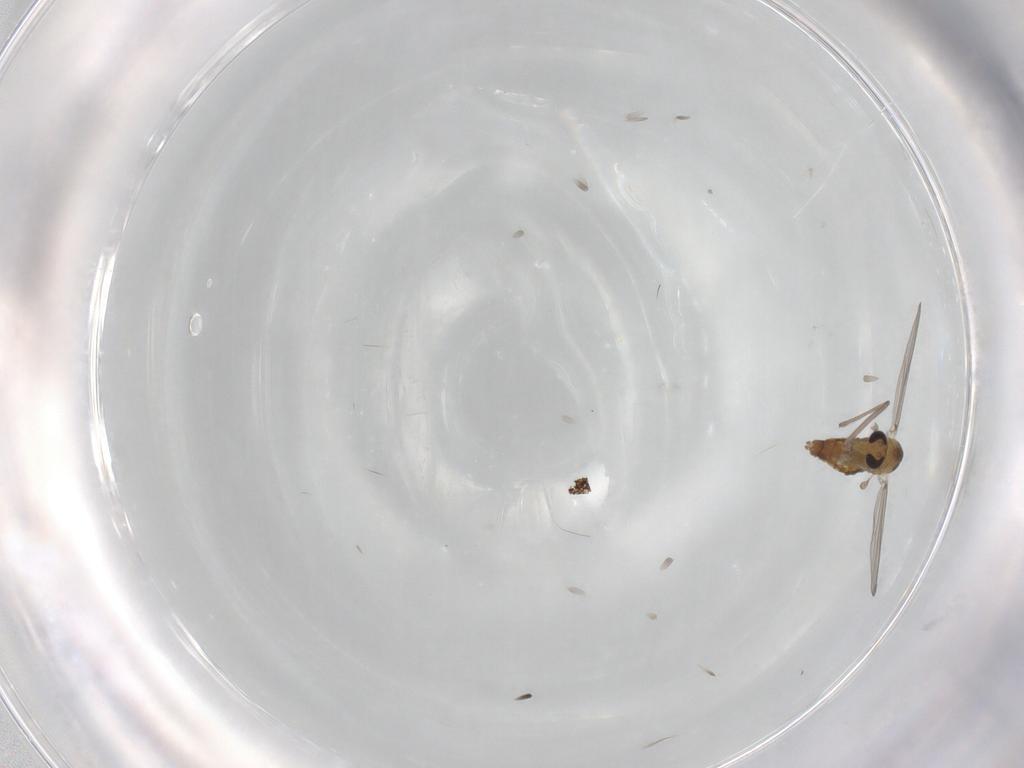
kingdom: Animalia
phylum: Arthropoda
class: Insecta
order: Diptera
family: Chironomidae
